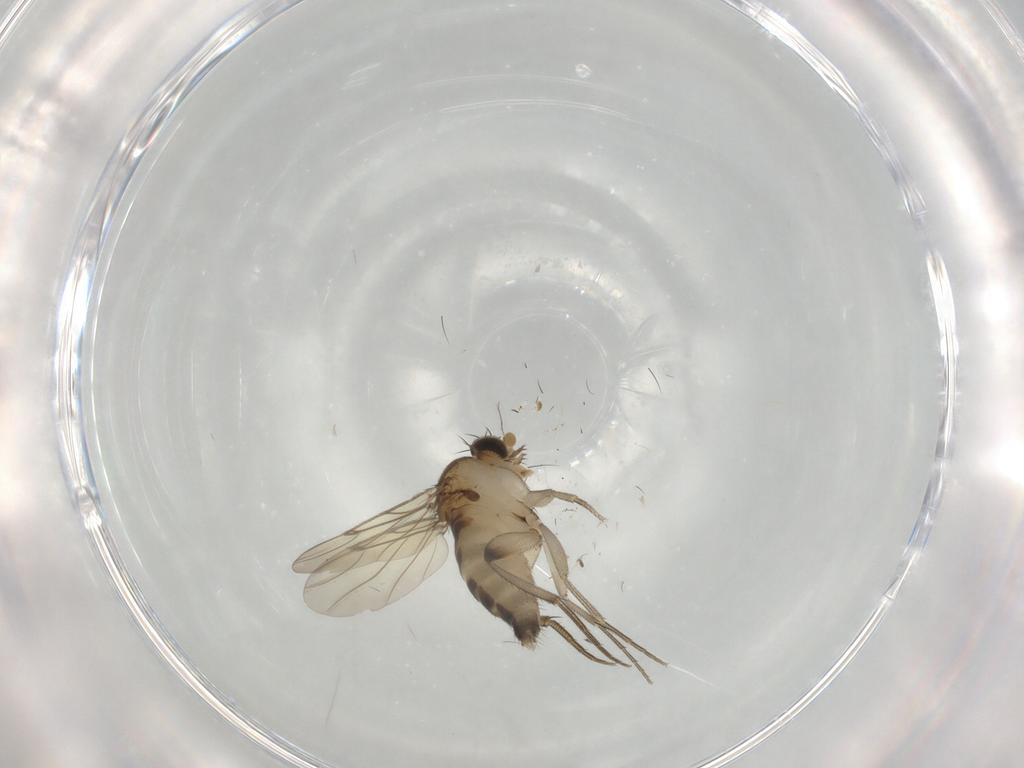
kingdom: Animalia
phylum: Arthropoda
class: Insecta
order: Diptera
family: Phoridae
